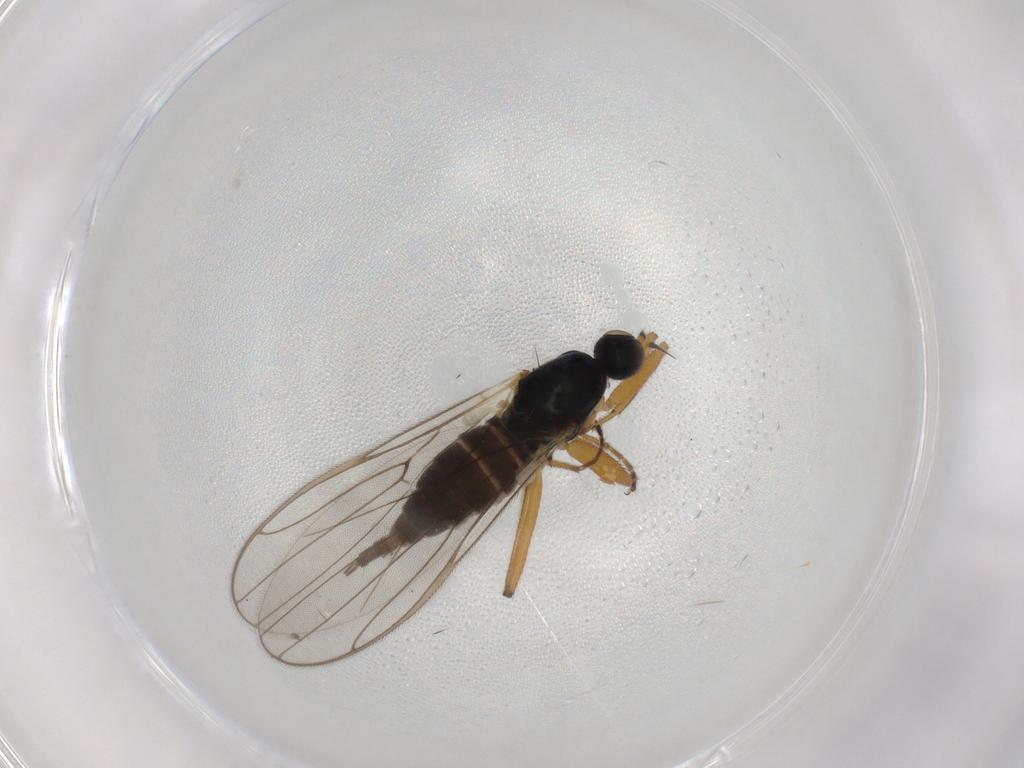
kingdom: Animalia
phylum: Arthropoda
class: Insecta
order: Diptera
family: Hybotidae
